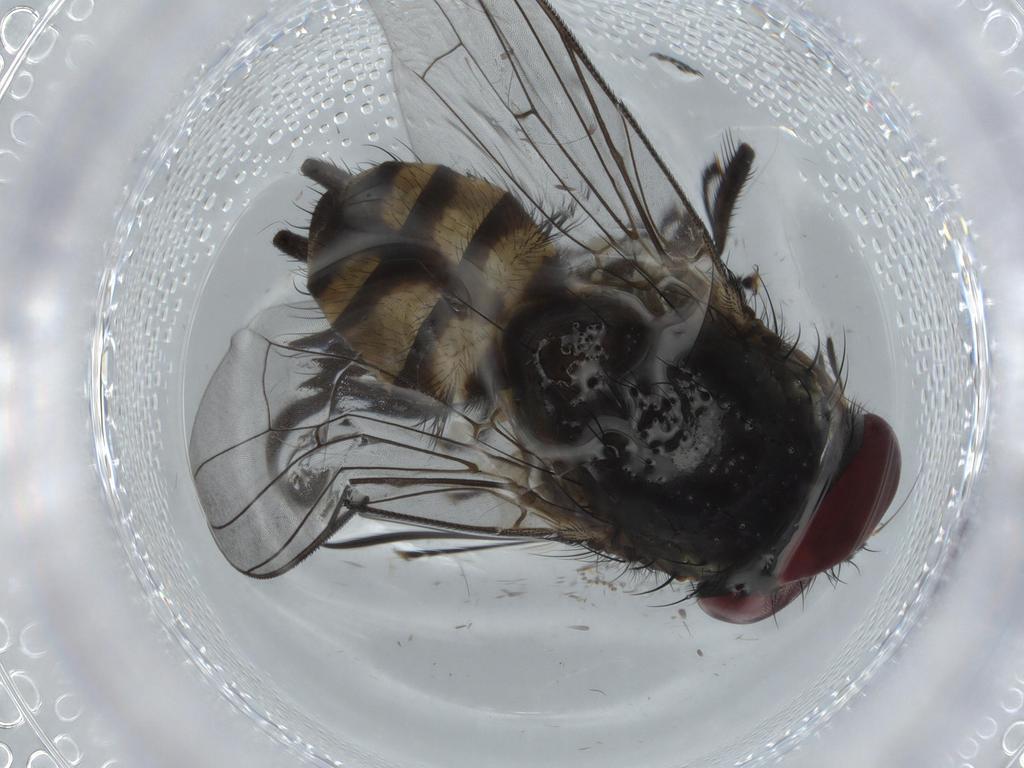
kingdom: Animalia
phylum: Arthropoda
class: Insecta
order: Diptera
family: Fannia
